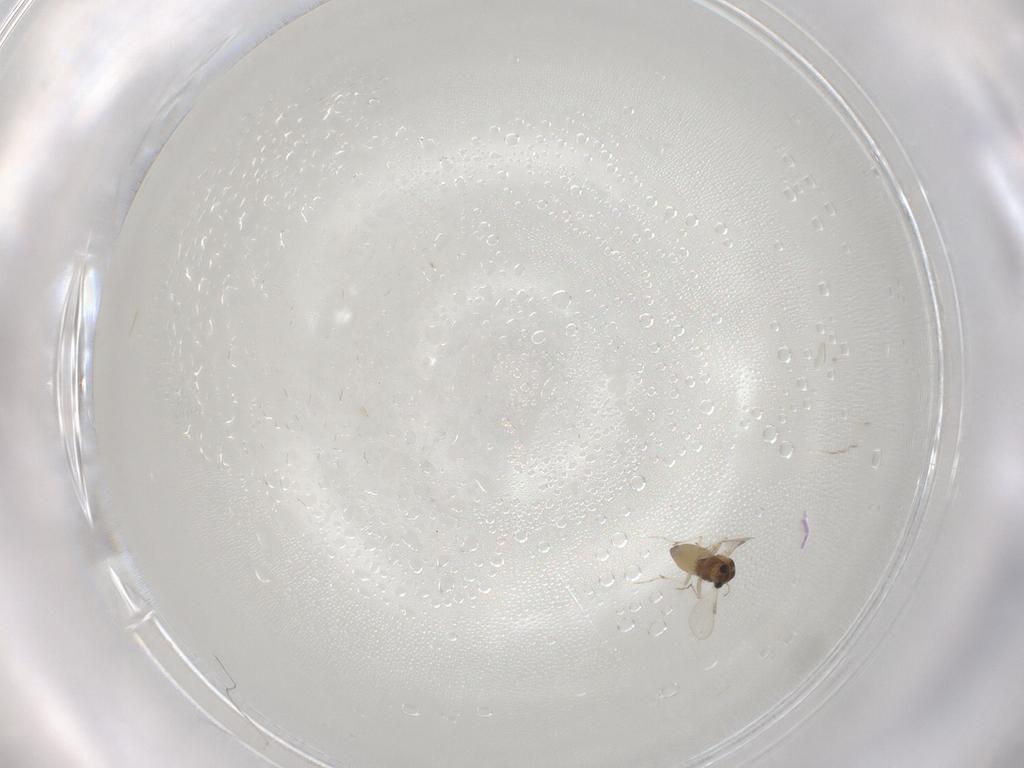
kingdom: Animalia
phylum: Arthropoda
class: Insecta
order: Diptera
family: Chironomidae
